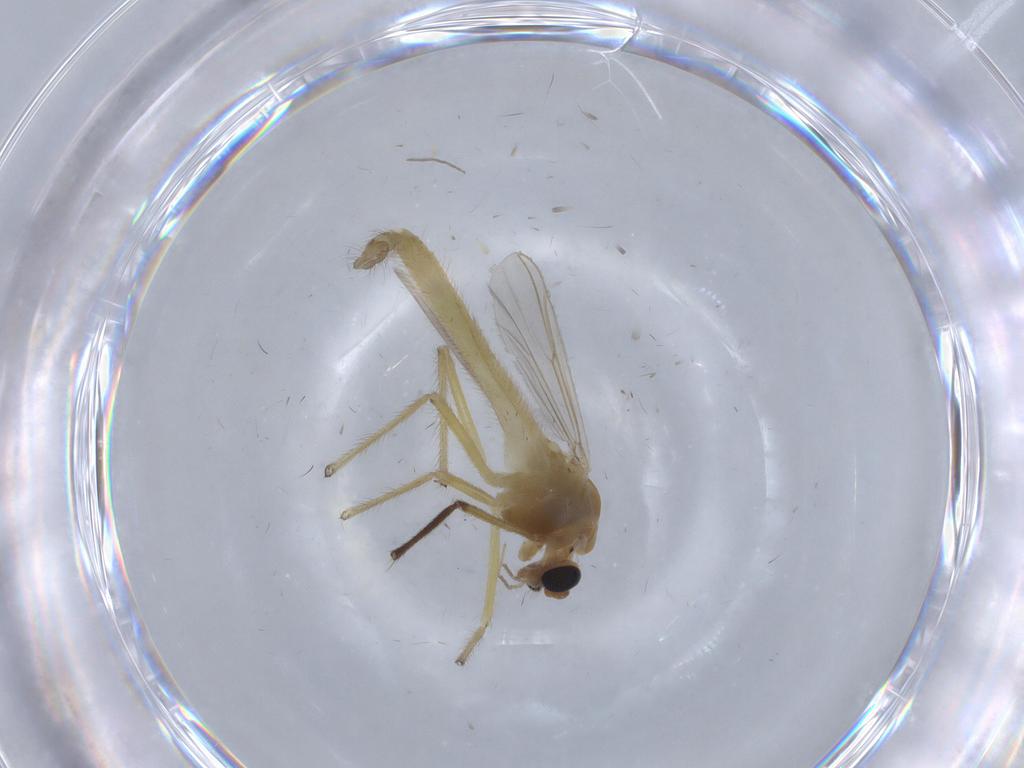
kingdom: Animalia
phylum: Arthropoda
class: Insecta
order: Diptera
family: Chironomidae
